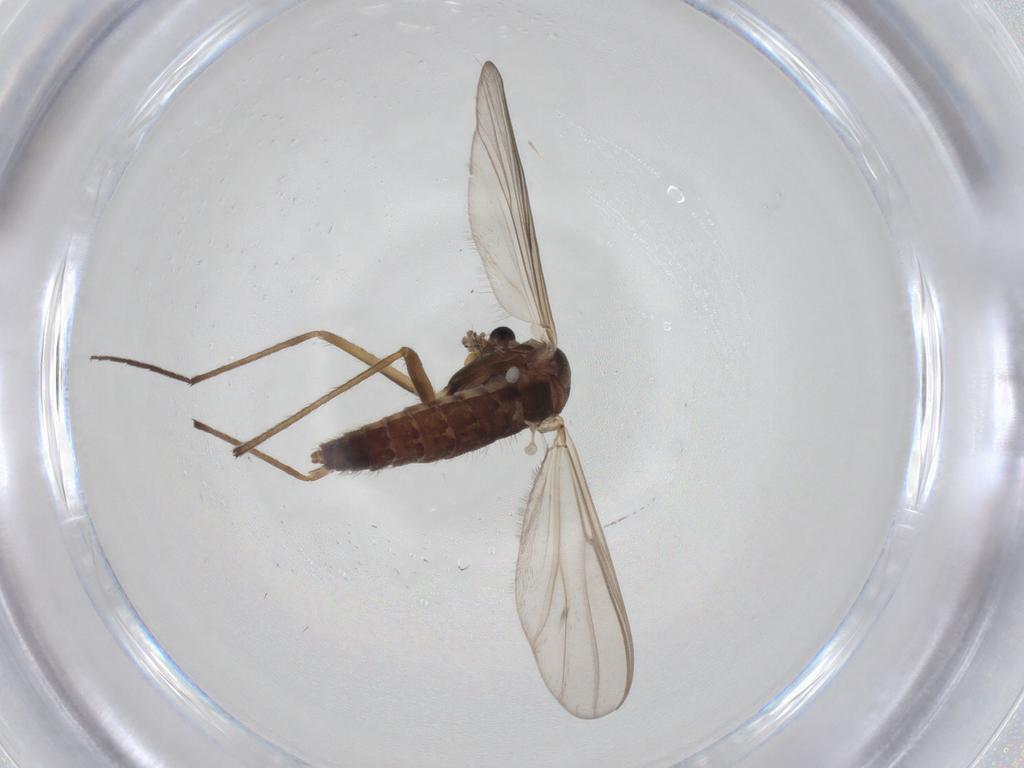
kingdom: Animalia
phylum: Arthropoda
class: Insecta
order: Diptera
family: Chironomidae
